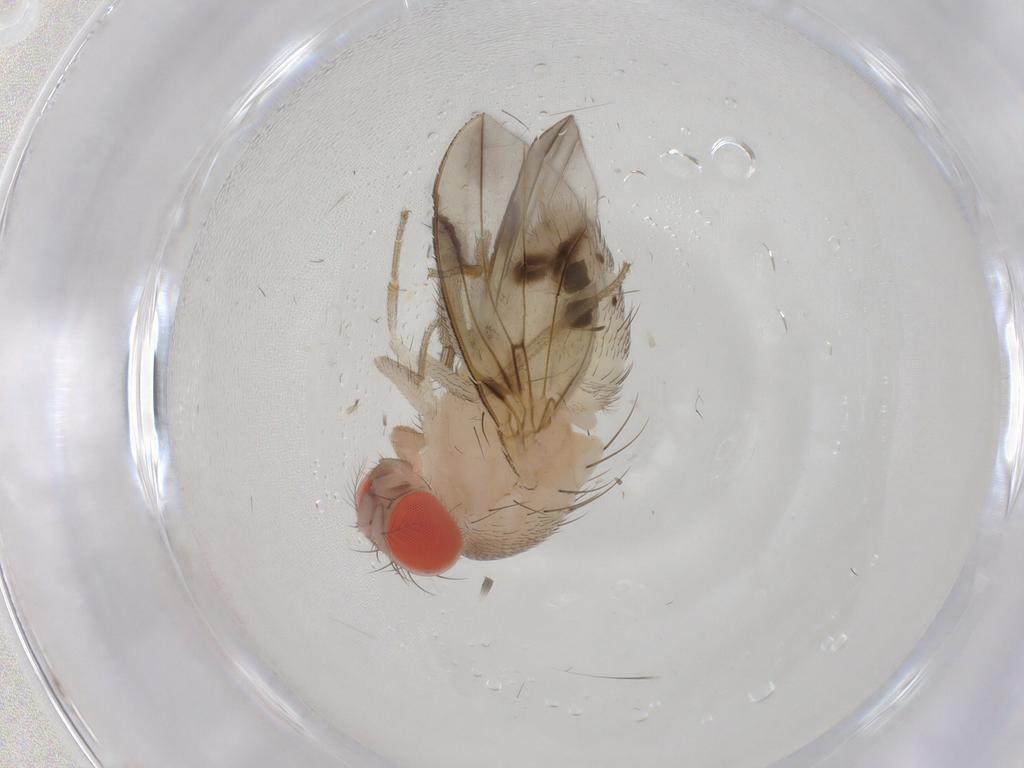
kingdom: Animalia
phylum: Arthropoda
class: Insecta
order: Diptera
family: Drosophilidae
